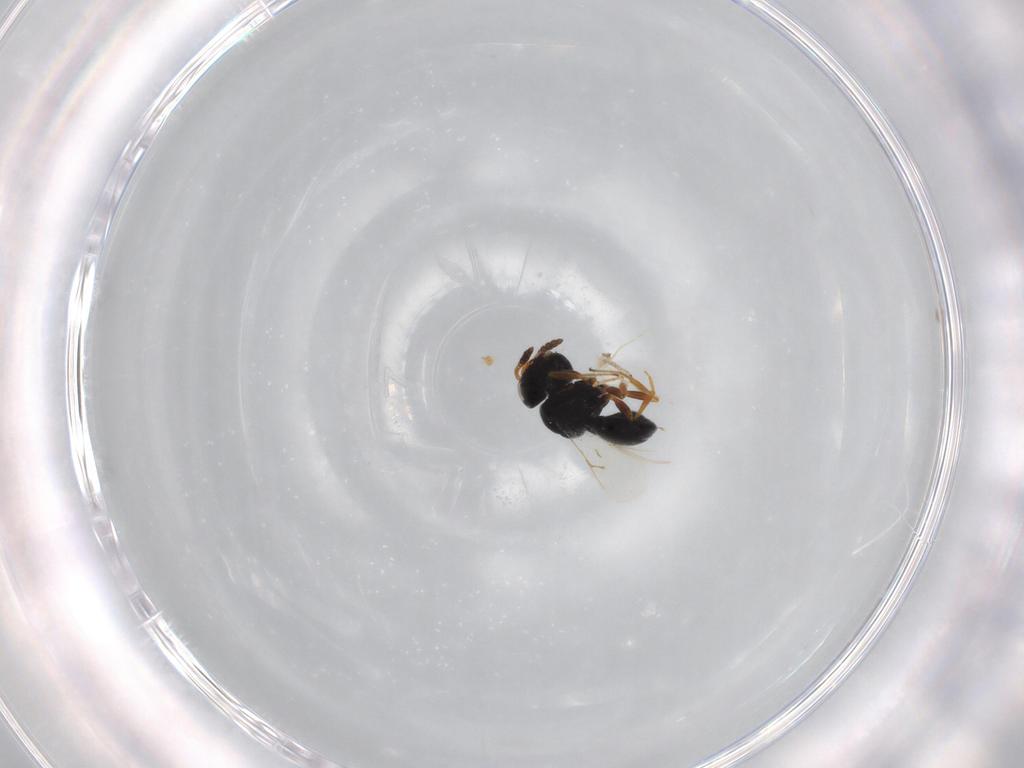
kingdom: Animalia
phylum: Arthropoda
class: Insecta
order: Hymenoptera
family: Scelionidae
